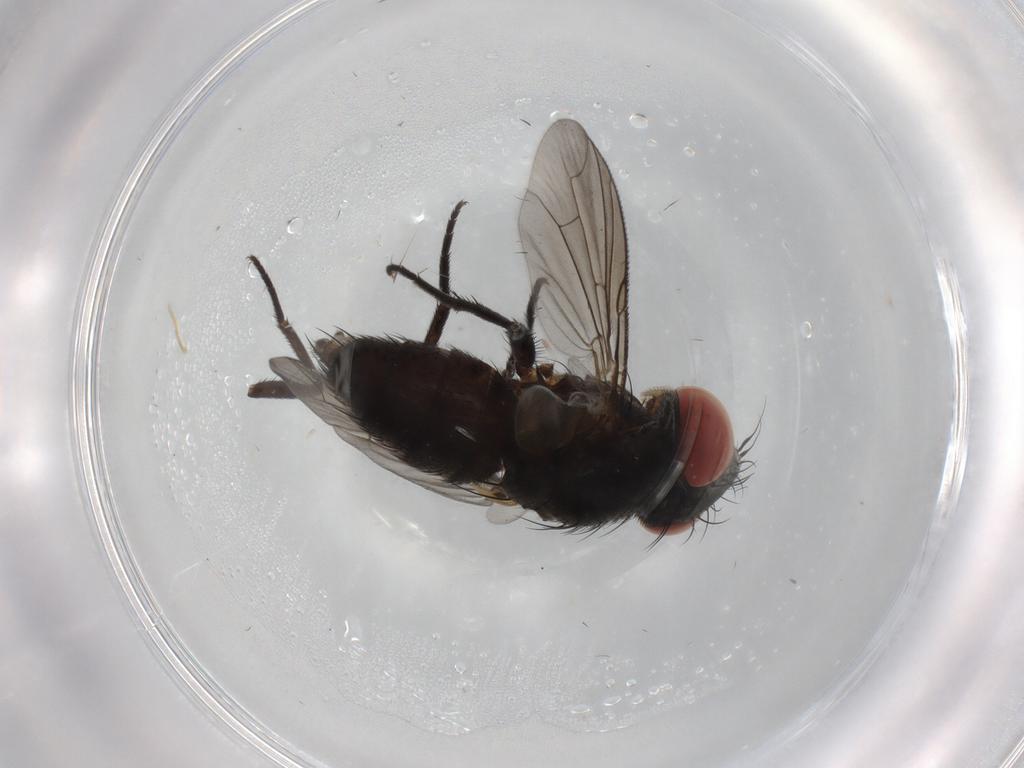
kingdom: Animalia
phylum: Arthropoda
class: Insecta
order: Diptera
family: Sarcophagidae
